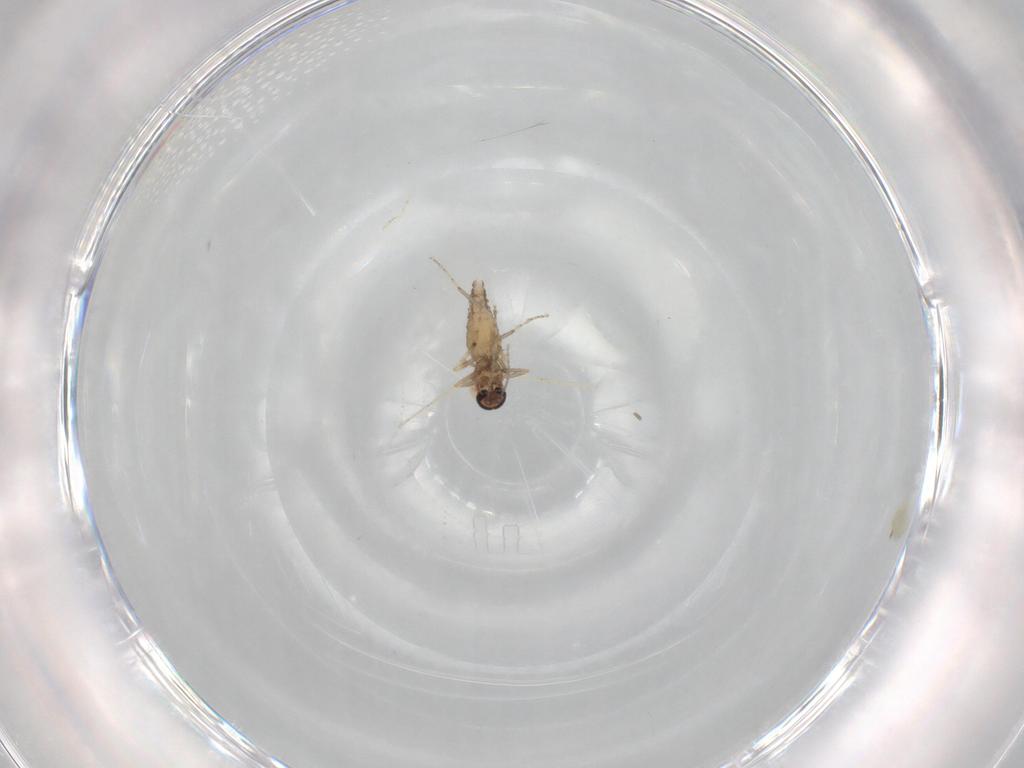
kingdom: Animalia
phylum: Arthropoda
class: Insecta
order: Diptera
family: Ceratopogonidae
